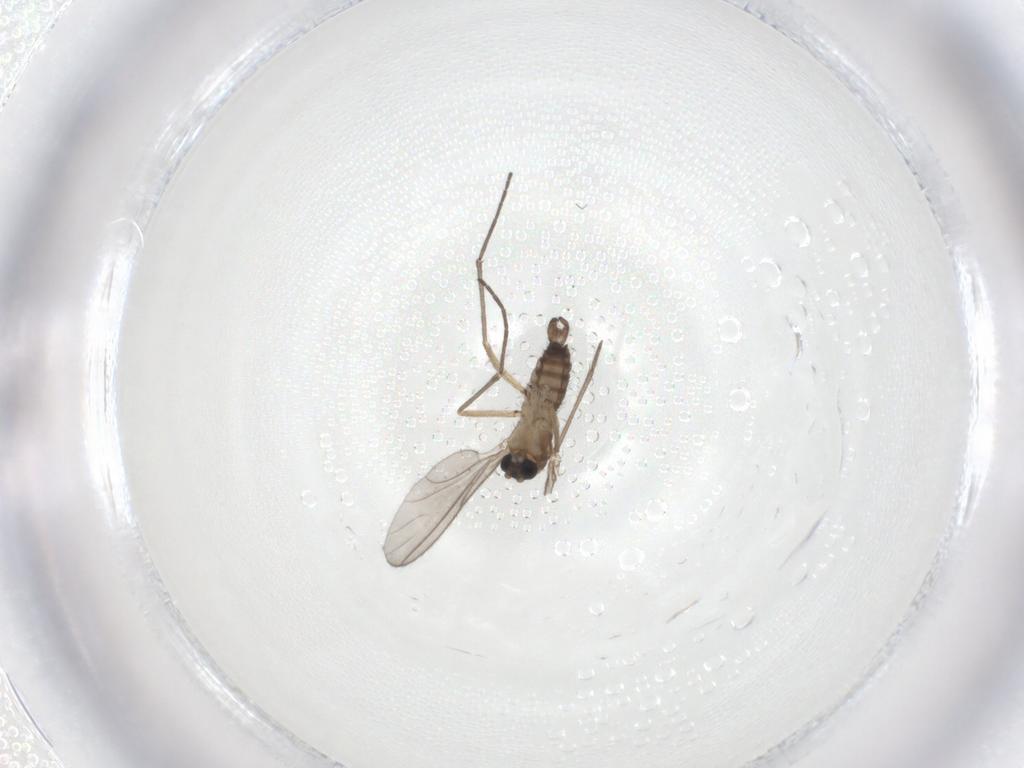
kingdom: Animalia
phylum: Arthropoda
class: Insecta
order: Diptera
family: Sciaridae
